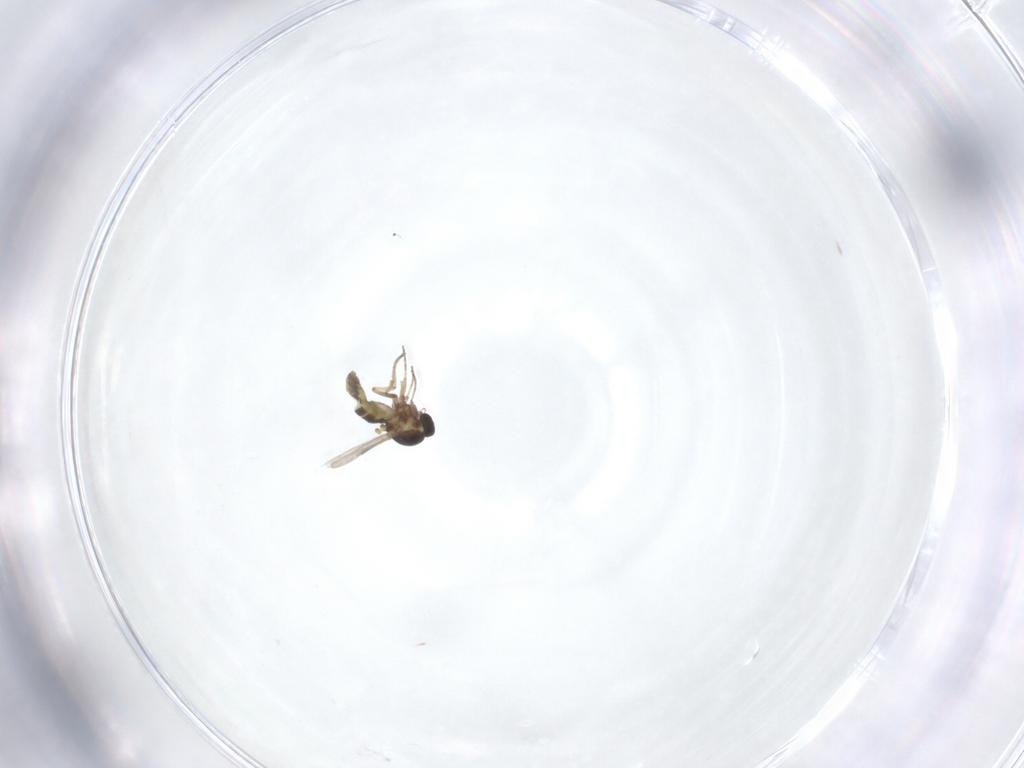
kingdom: Animalia
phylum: Arthropoda
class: Insecta
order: Diptera
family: Ceratopogonidae
